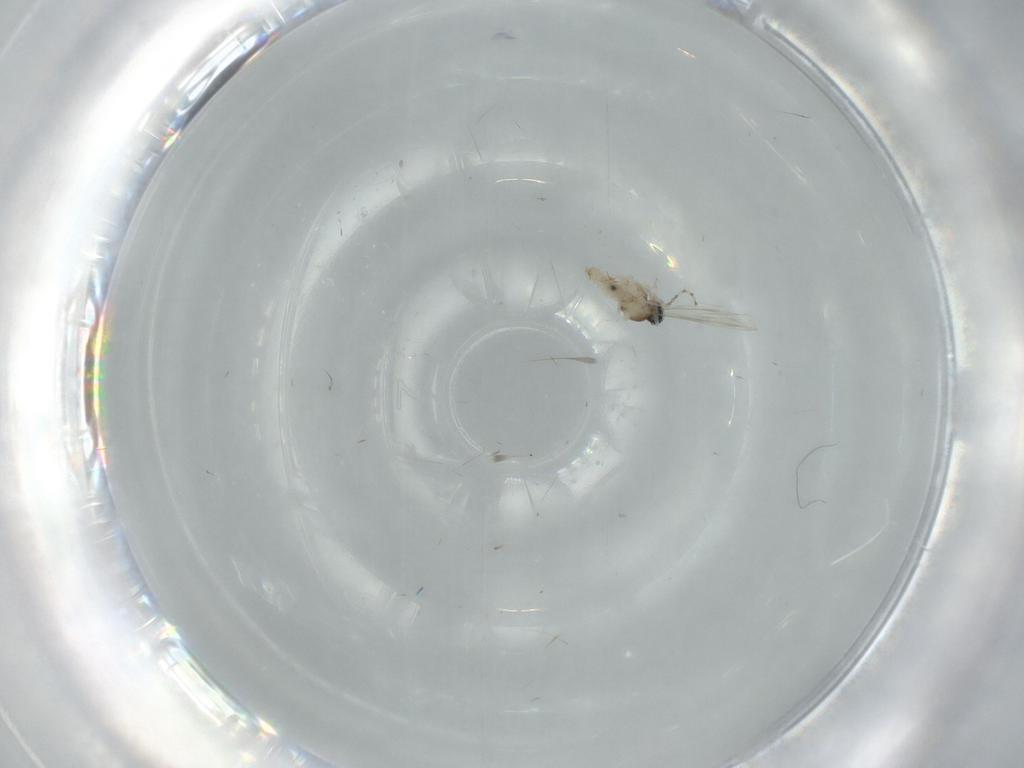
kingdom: Animalia
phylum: Arthropoda
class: Insecta
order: Diptera
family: Cecidomyiidae
